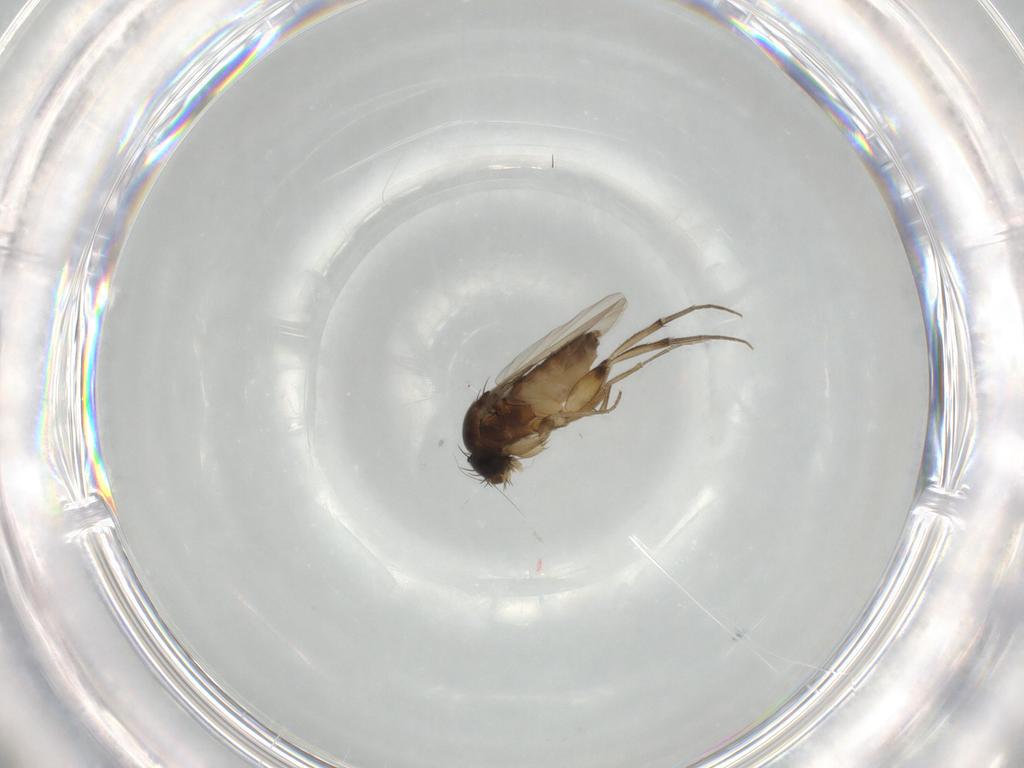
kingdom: Animalia
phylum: Arthropoda
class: Insecta
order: Diptera
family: Cecidomyiidae
